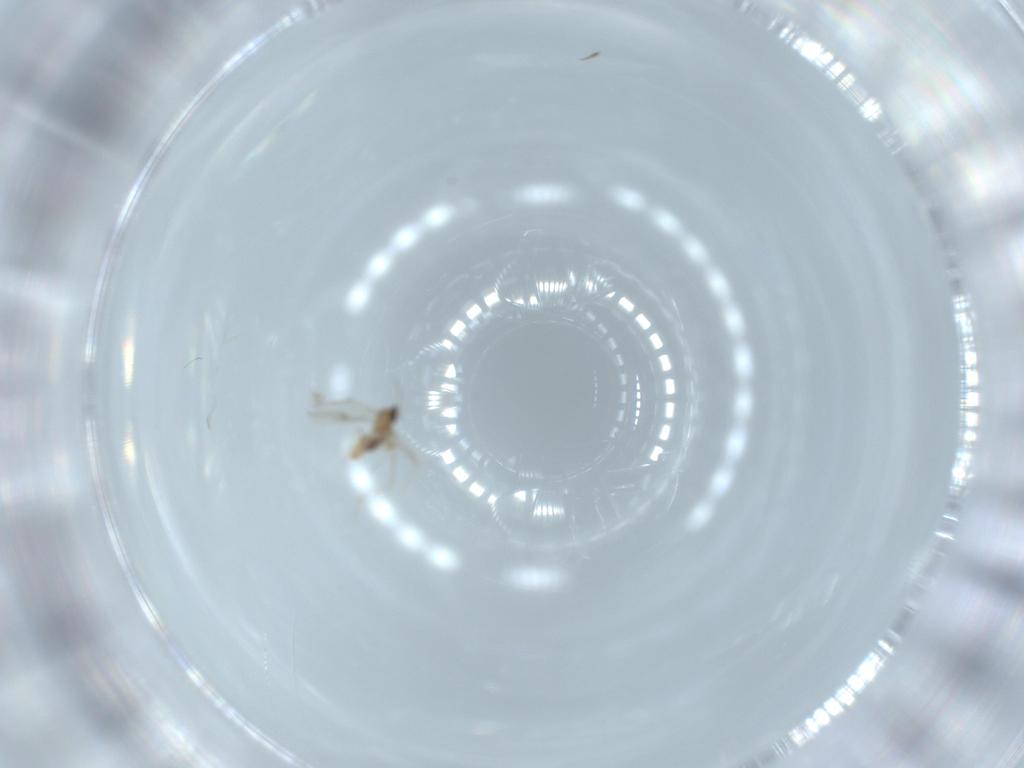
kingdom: Animalia
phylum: Arthropoda
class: Insecta
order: Diptera
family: Cecidomyiidae
